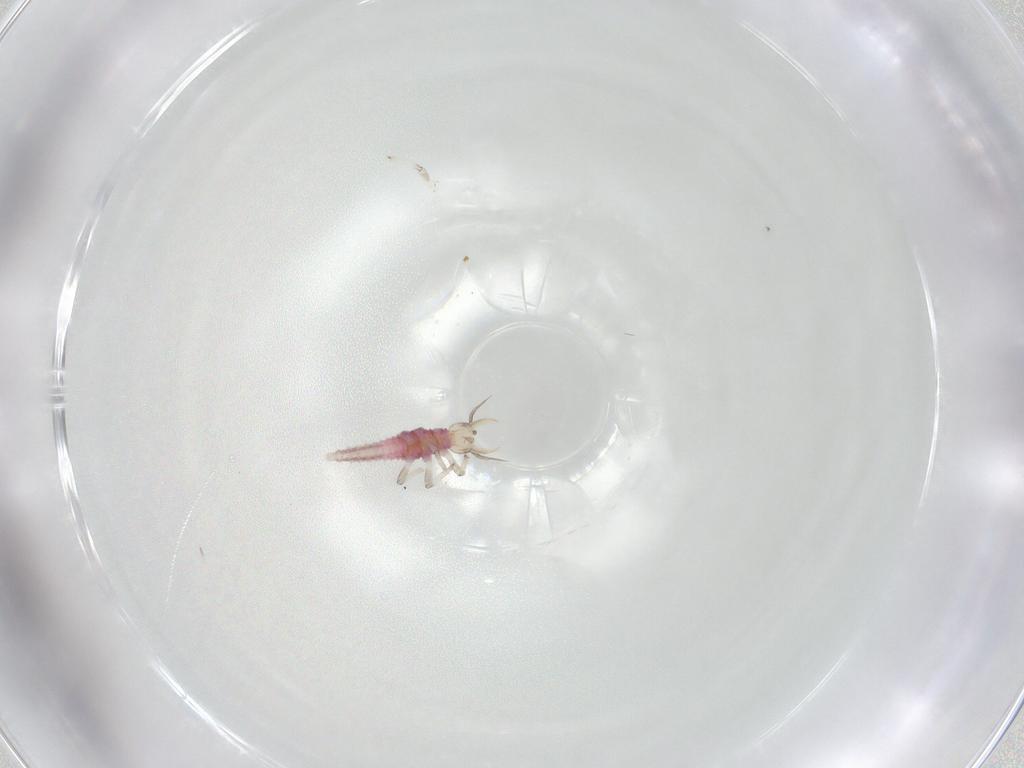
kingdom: Animalia
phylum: Arthropoda
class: Insecta
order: Neuroptera
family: Hemerobiidae
